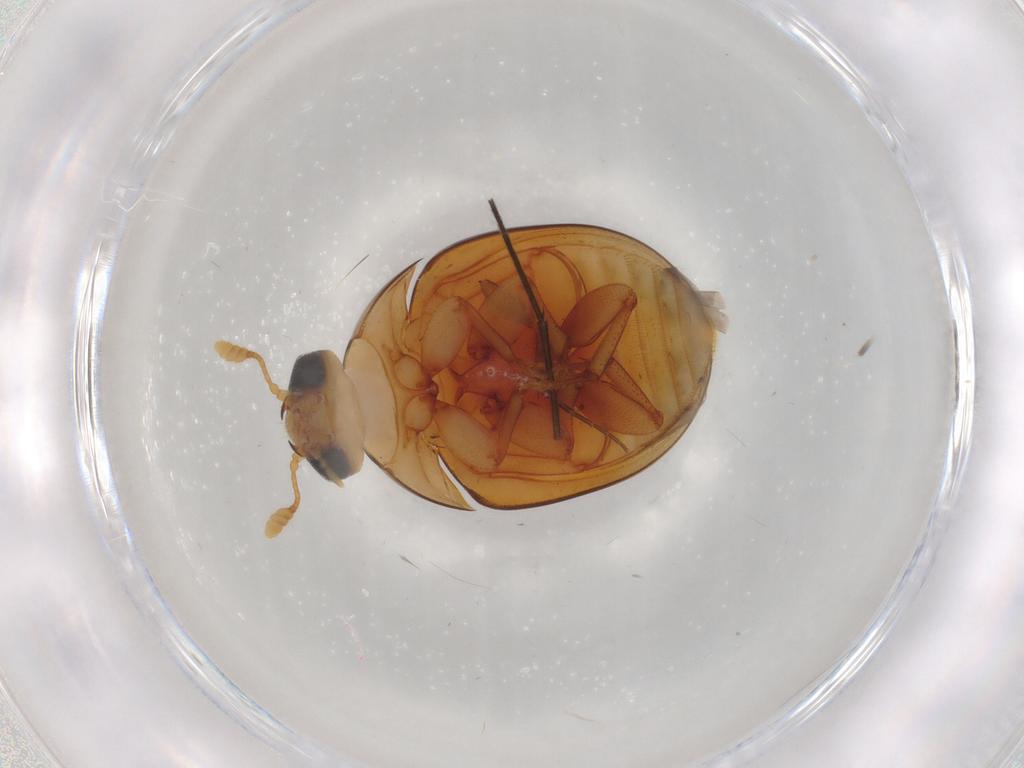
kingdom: Animalia
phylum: Arthropoda
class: Insecta
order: Coleoptera
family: Phalacridae
